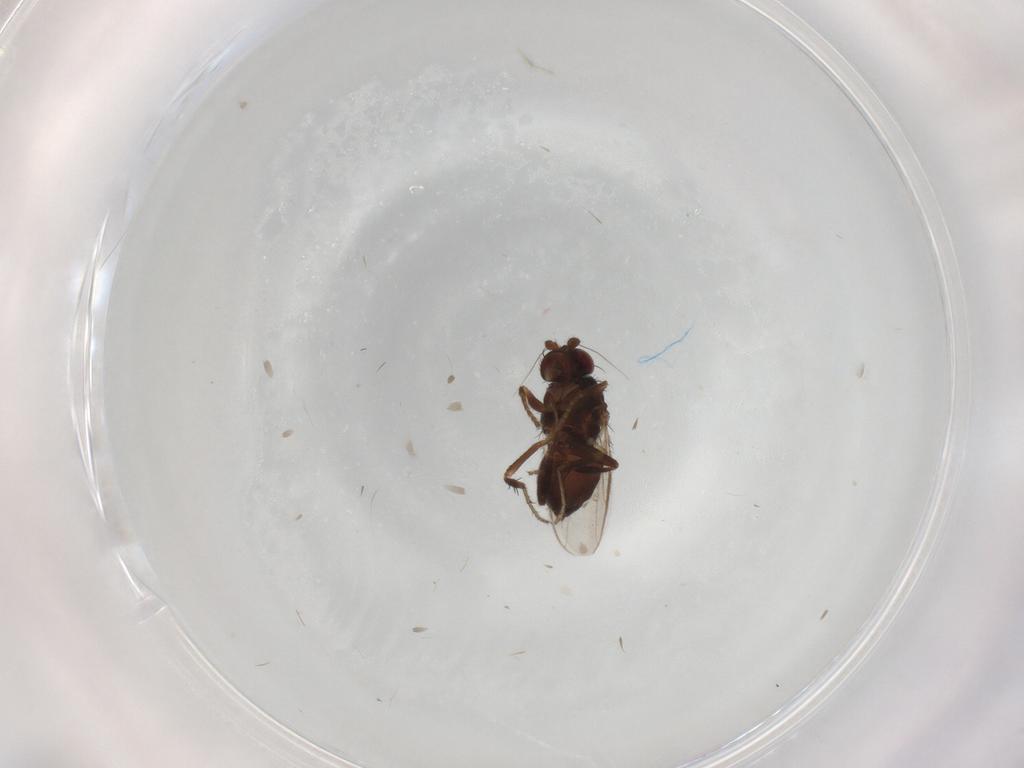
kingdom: Animalia
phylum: Arthropoda
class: Insecta
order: Diptera
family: Sphaeroceridae
